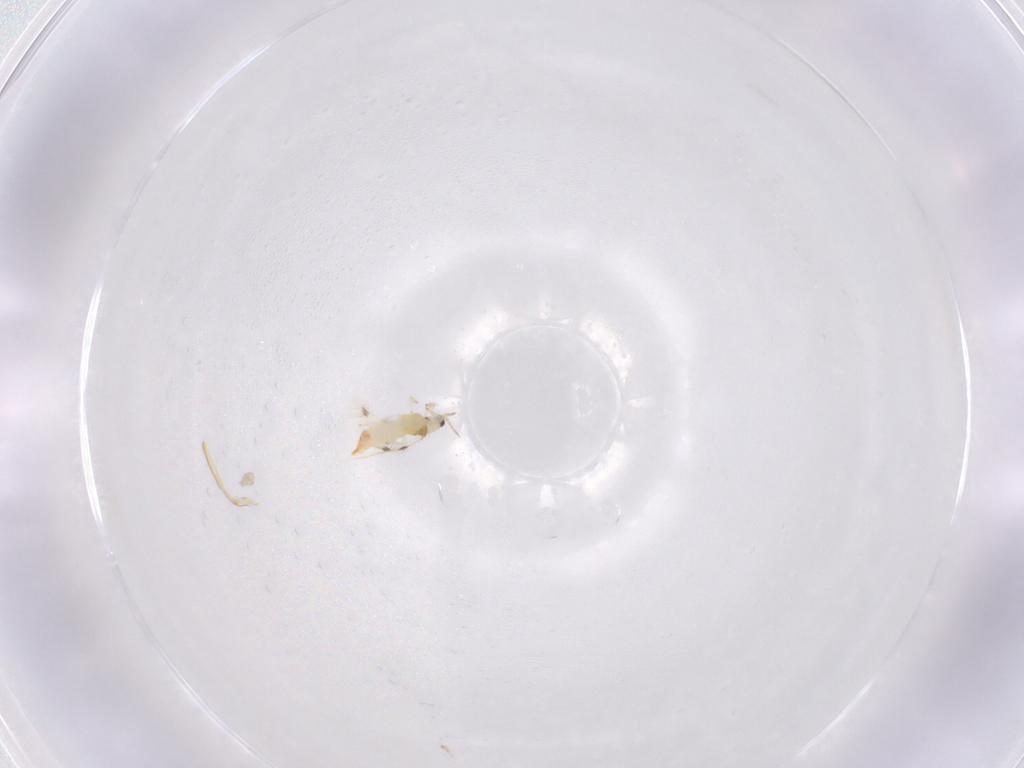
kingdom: Animalia
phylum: Arthropoda
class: Insecta
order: Thysanoptera
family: Thripidae
